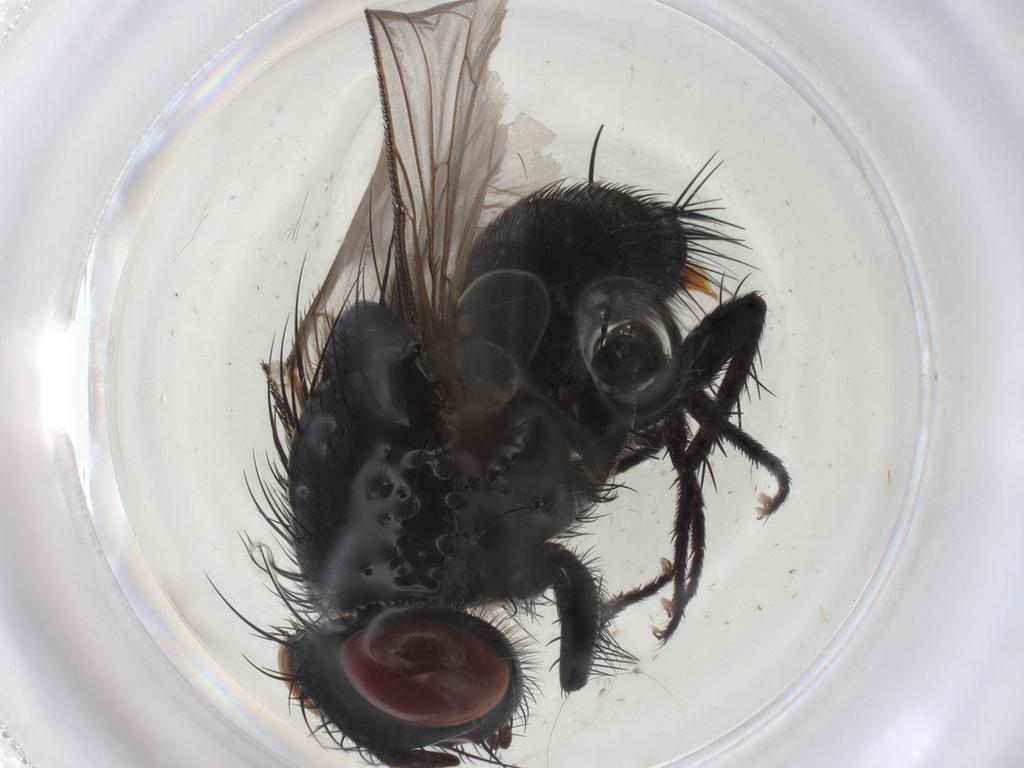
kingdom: Animalia
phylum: Arthropoda
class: Insecta
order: Diptera
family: Sarcophagidae
